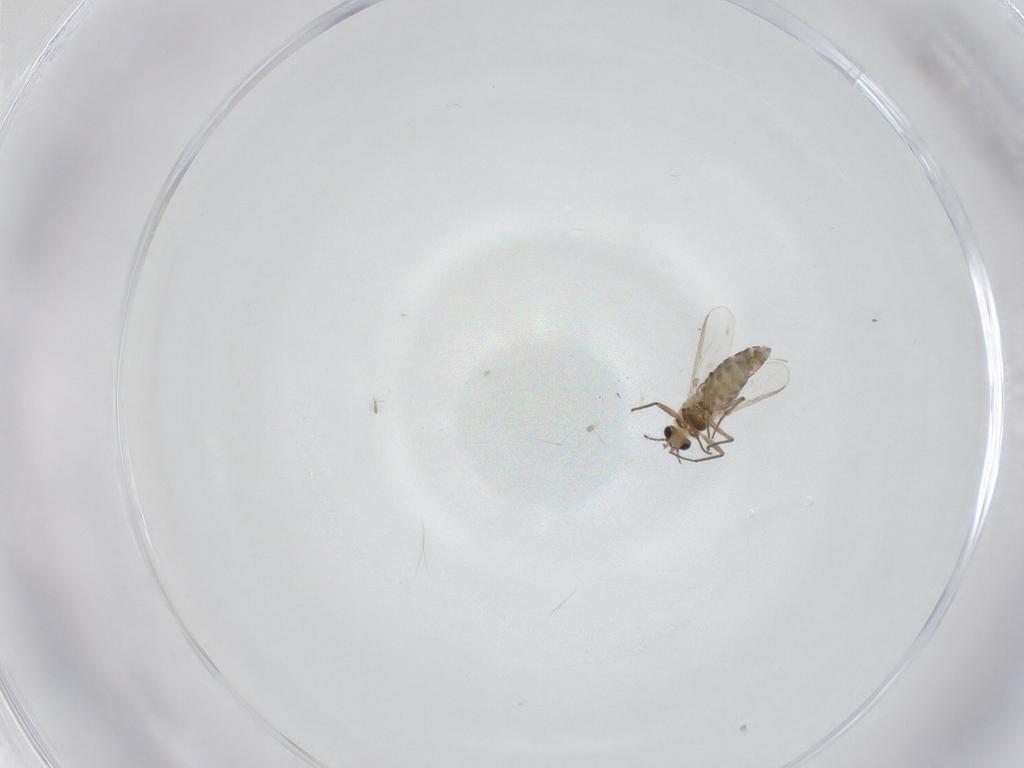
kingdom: Animalia
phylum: Arthropoda
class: Insecta
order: Diptera
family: Chironomidae
